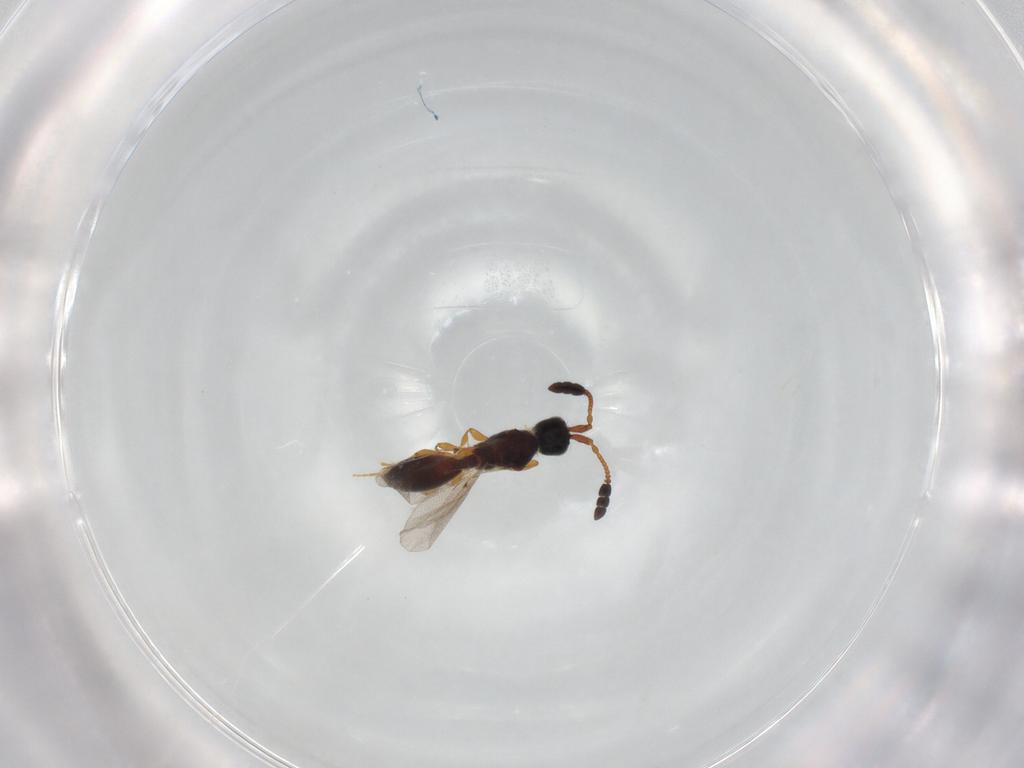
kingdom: Animalia
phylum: Arthropoda
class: Insecta
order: Hymenoptera
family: Diapriidae
